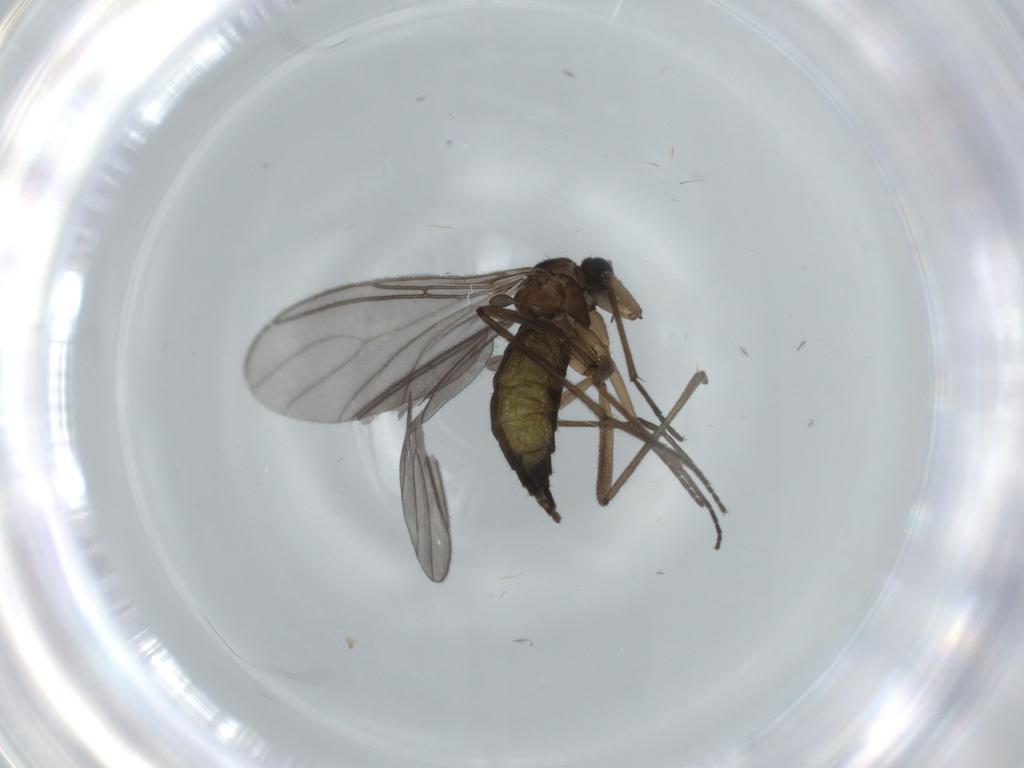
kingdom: Animalia
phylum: Arthropoda
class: Insecta
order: Diptera
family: Sciaridae
